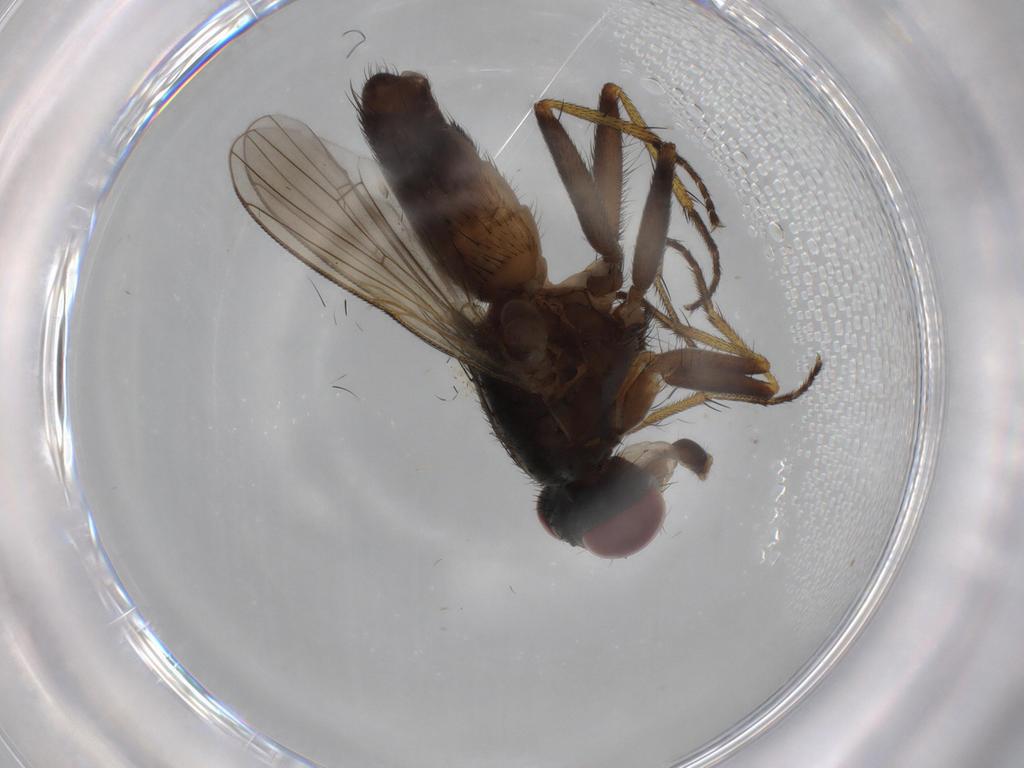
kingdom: Animalia
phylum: Arthropoda
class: Insecta
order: Diptera
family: Muscidae
